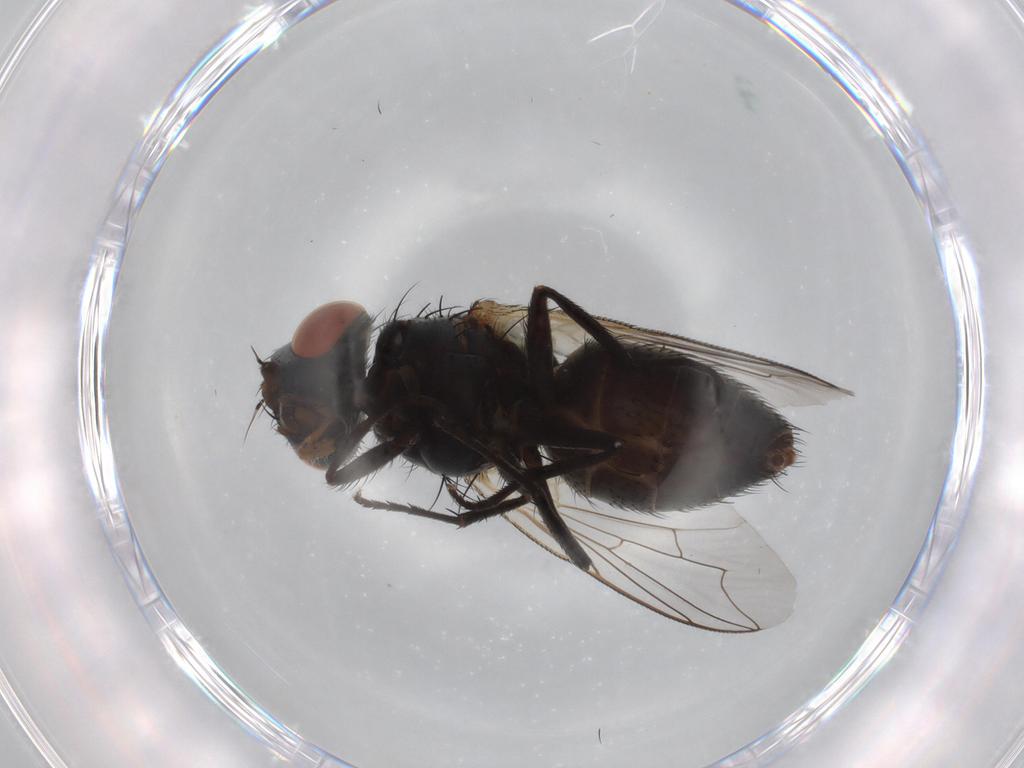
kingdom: Animalia
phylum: Arthropoda
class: Insecta
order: Diptera
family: Sarcophagidae
